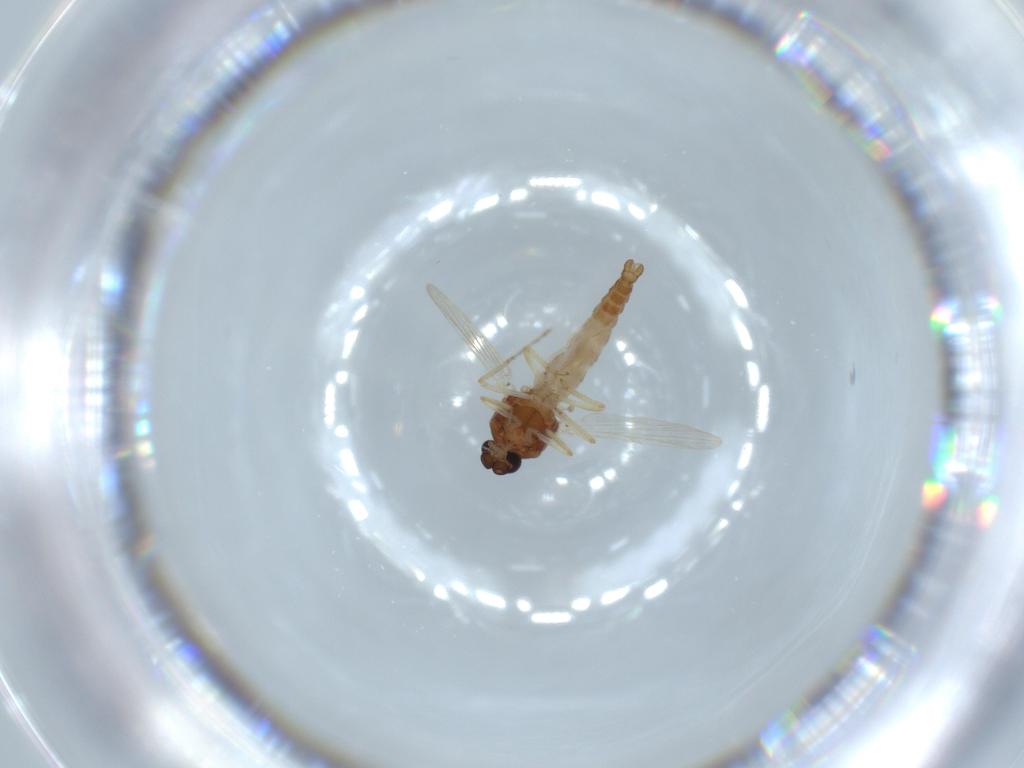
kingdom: Animalia
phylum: Arthropoda
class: Insecta
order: Diptera
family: Ceratopogonidae
